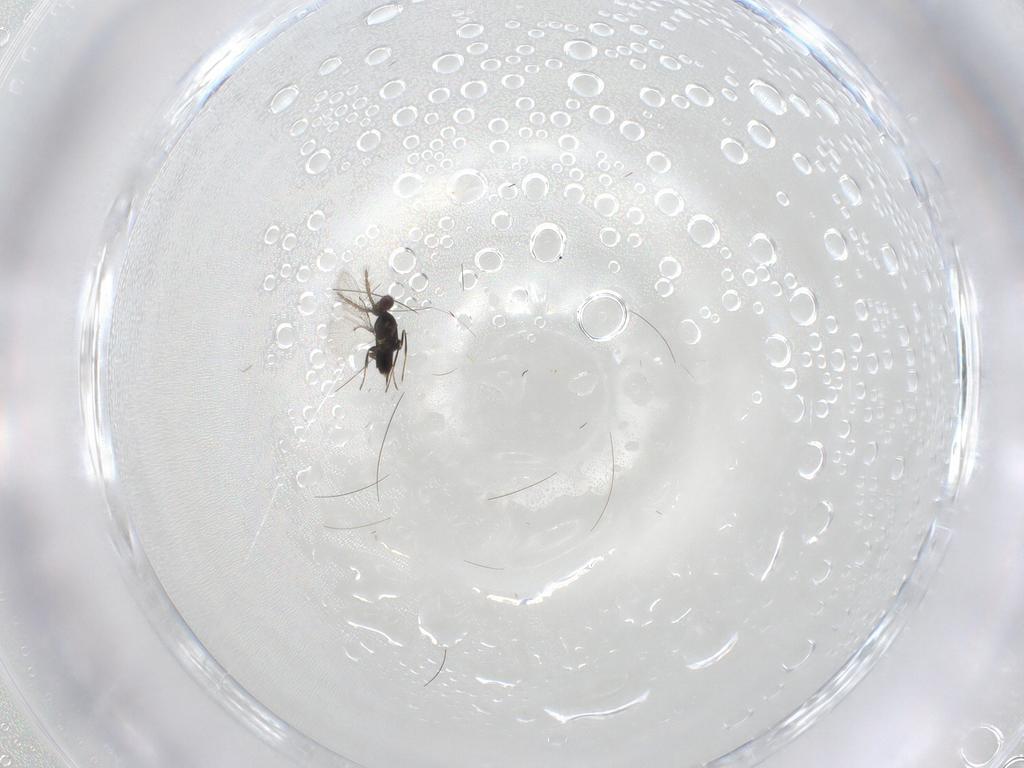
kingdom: Animalia
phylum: Arthropoda
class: Insecta
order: Hymenoptera
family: Trichogrammatidae
